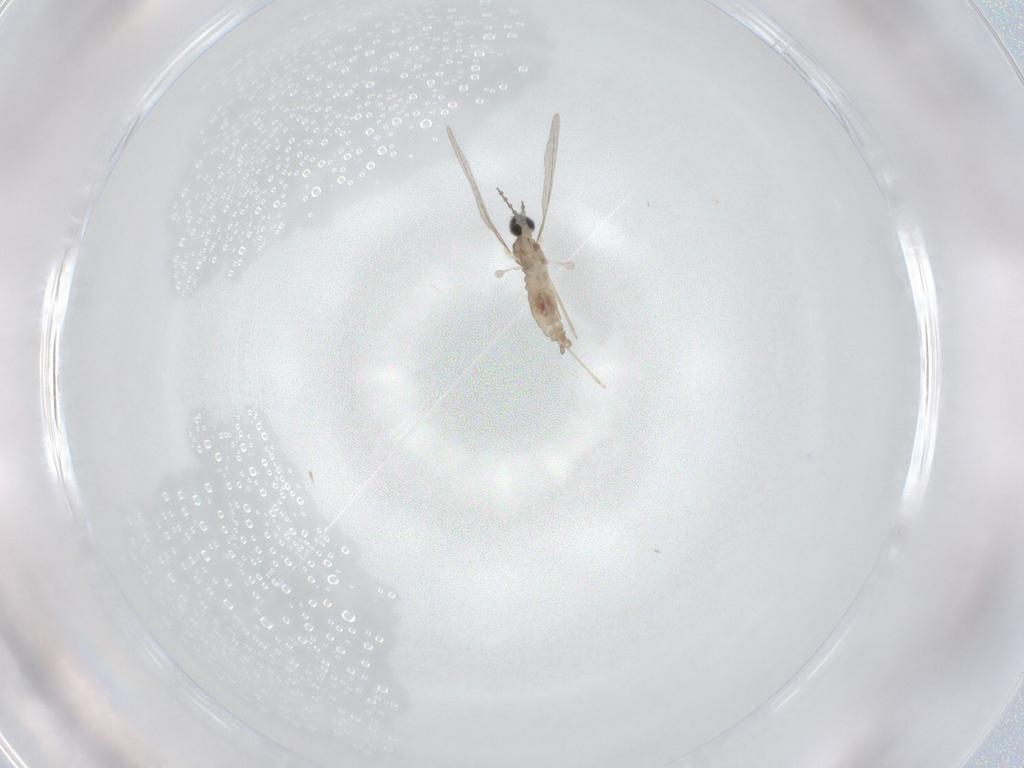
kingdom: Animalia
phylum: Arthropoda
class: Insecta
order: Diptera
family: Cecidomyiidae
